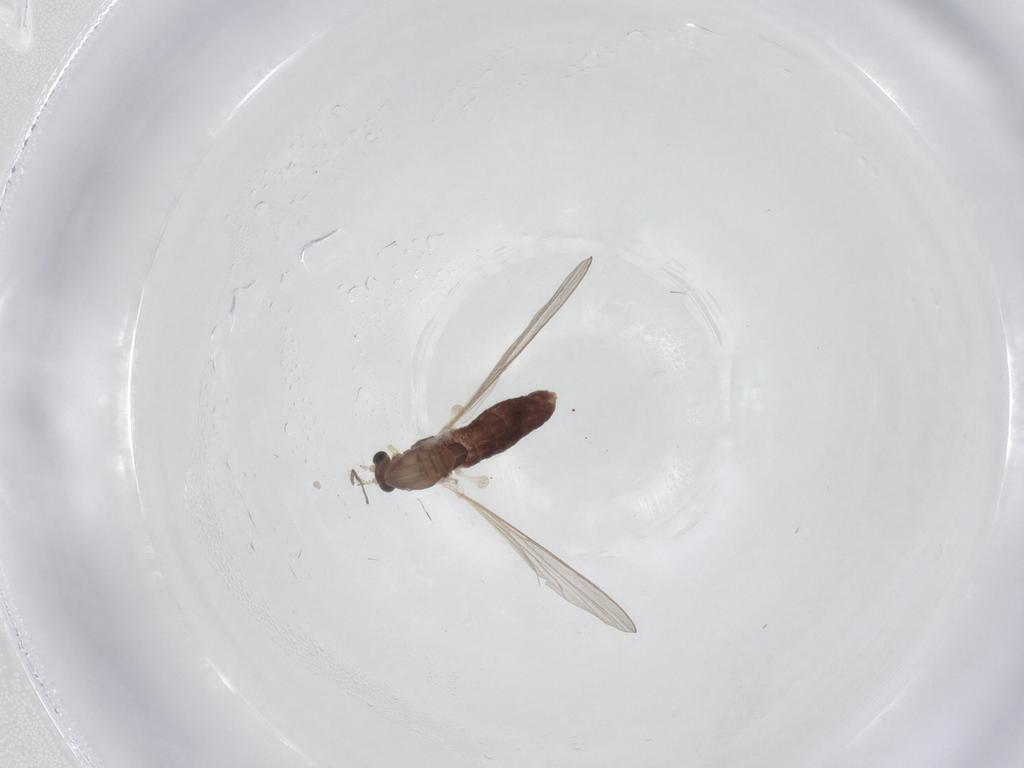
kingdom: Animalia
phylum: Arthropoda
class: Insecta
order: Diptera
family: Chironomidae
